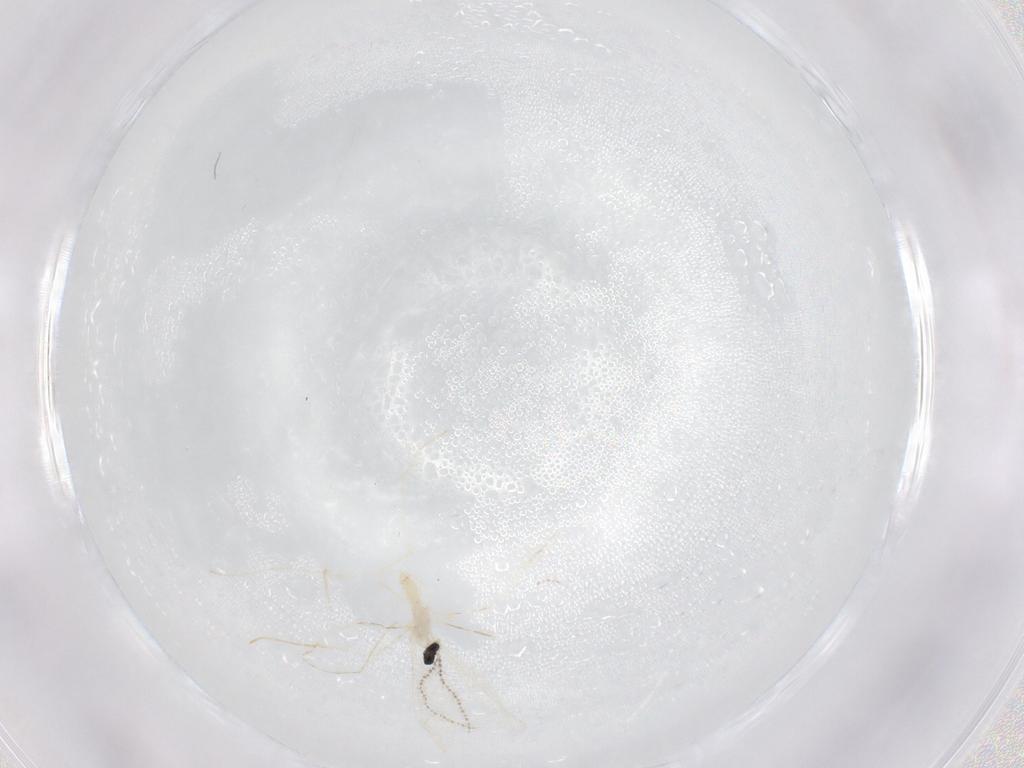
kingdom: Animalia
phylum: Arthropoda
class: Insecta
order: Diptera
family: Cecidomyiidae
